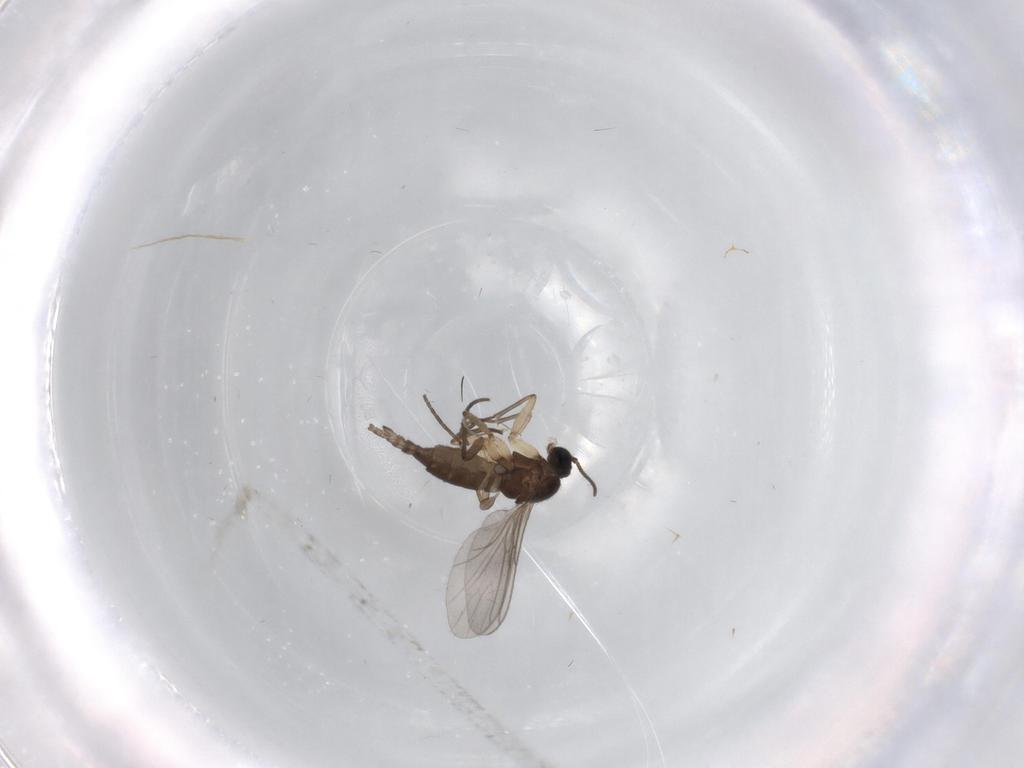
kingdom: Animalia
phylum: Arthropoda
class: Insecta
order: Diptera
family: Sciaridae
